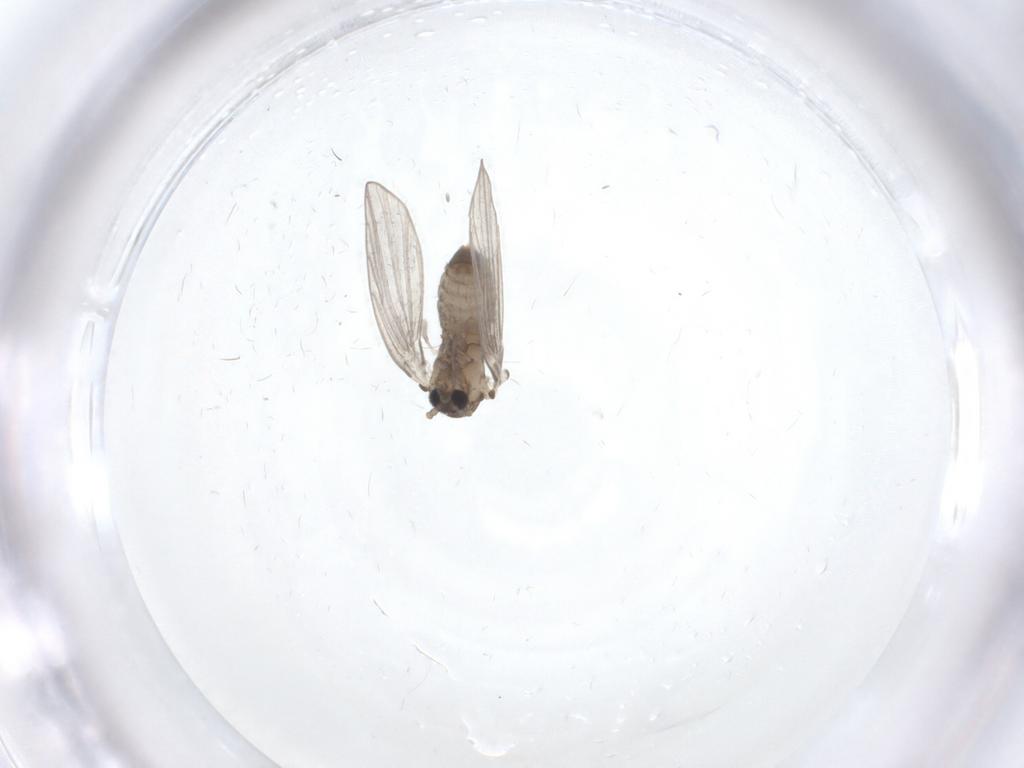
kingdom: Animalia
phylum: Arthropoda
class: Insecta
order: Diptera
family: Psychodidae
